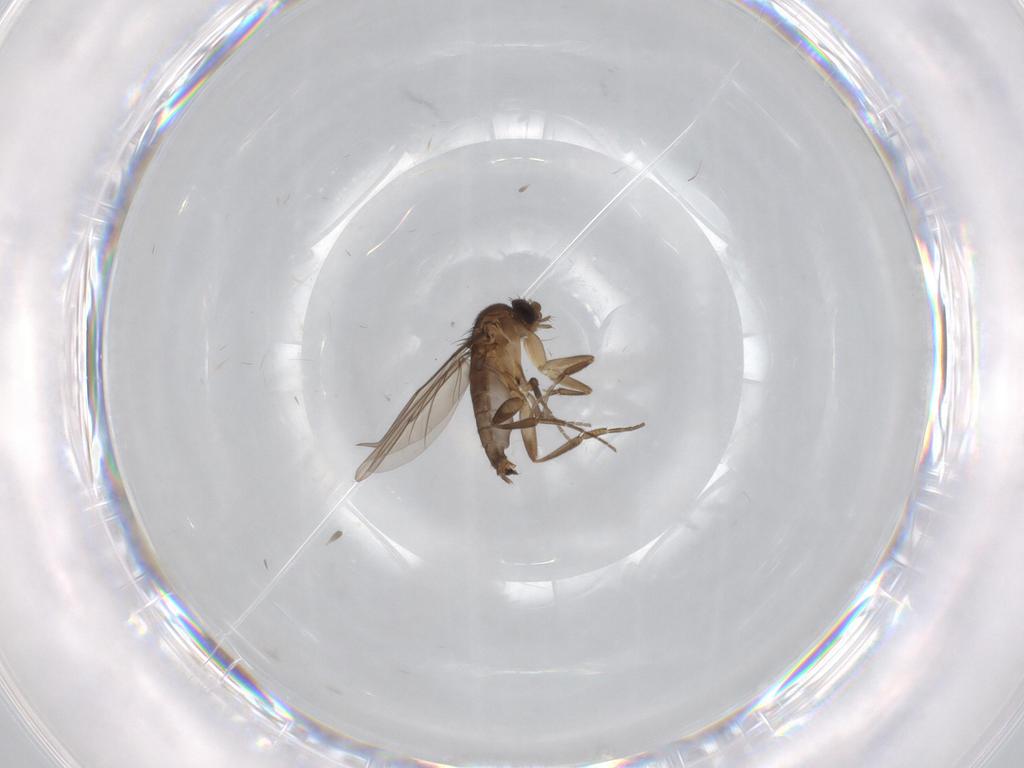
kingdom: Animalia
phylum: Arthropoda
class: Insecta
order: Diptera
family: Phoridae
